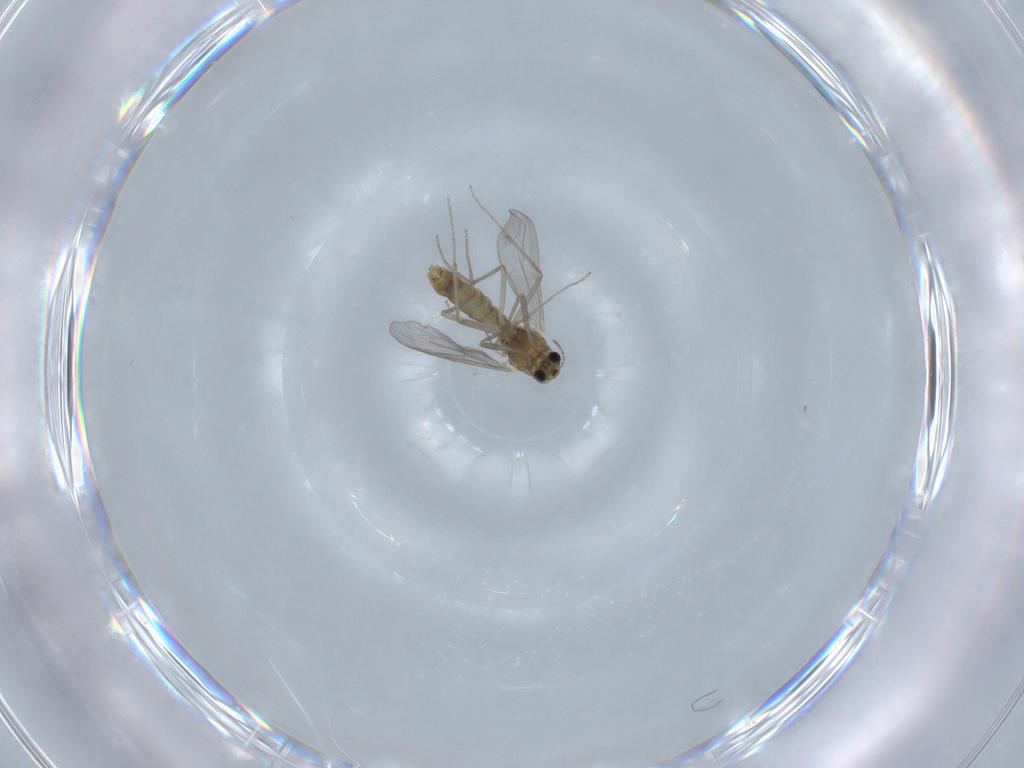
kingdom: Animalia
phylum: Arthropoda
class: Insecta
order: Diptera
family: Chironomidae
